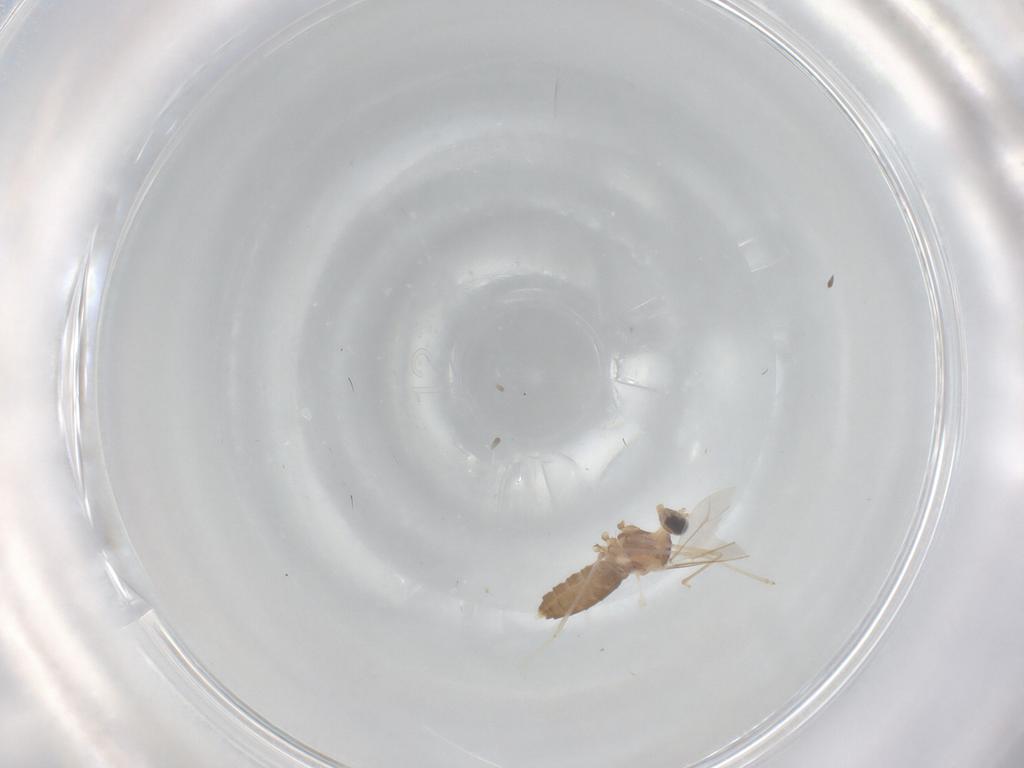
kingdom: Animalia
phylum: Arthropoda
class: Insecta
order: Diptera
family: Cecidomyiidae
